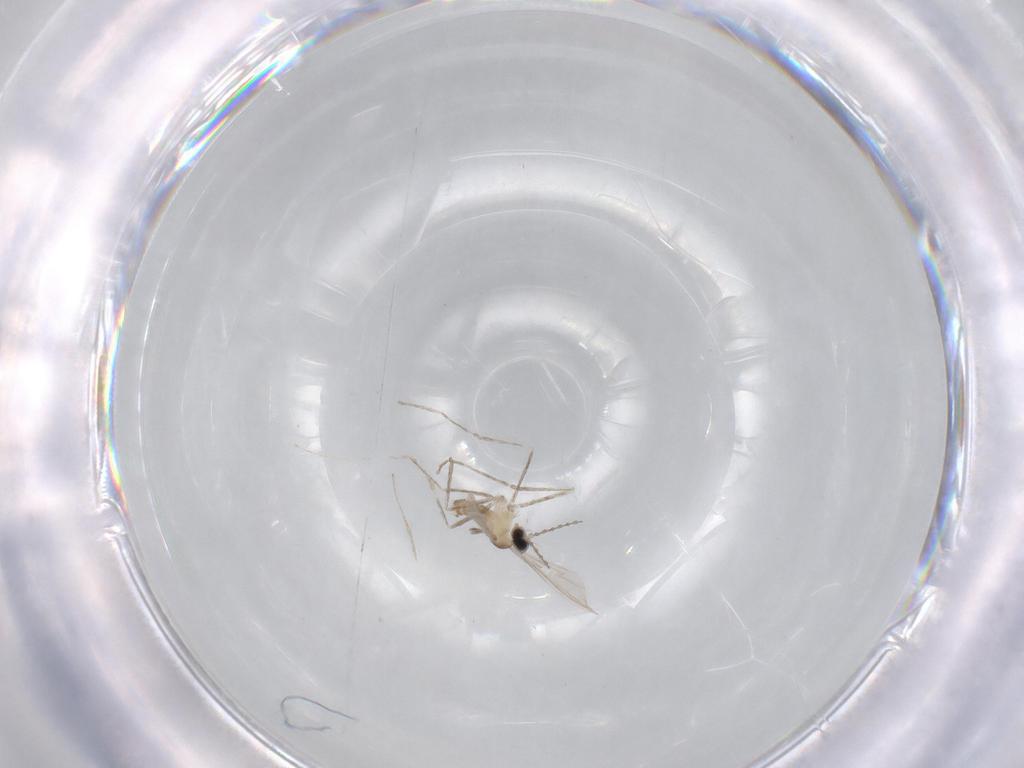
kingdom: Animalia
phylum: Arthropoda
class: Insecta
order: Diptera
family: Cecidomyiidae
